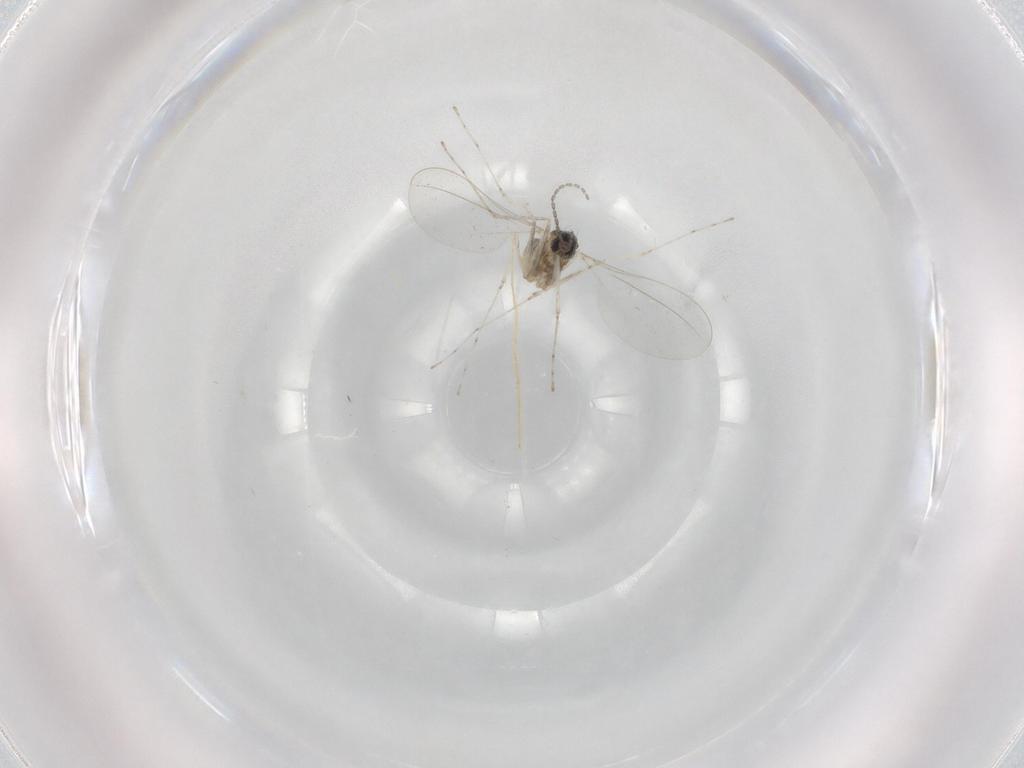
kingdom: Animalia
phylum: Arthropoda
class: Insecta
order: Diptera
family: Cecidomyiidae
